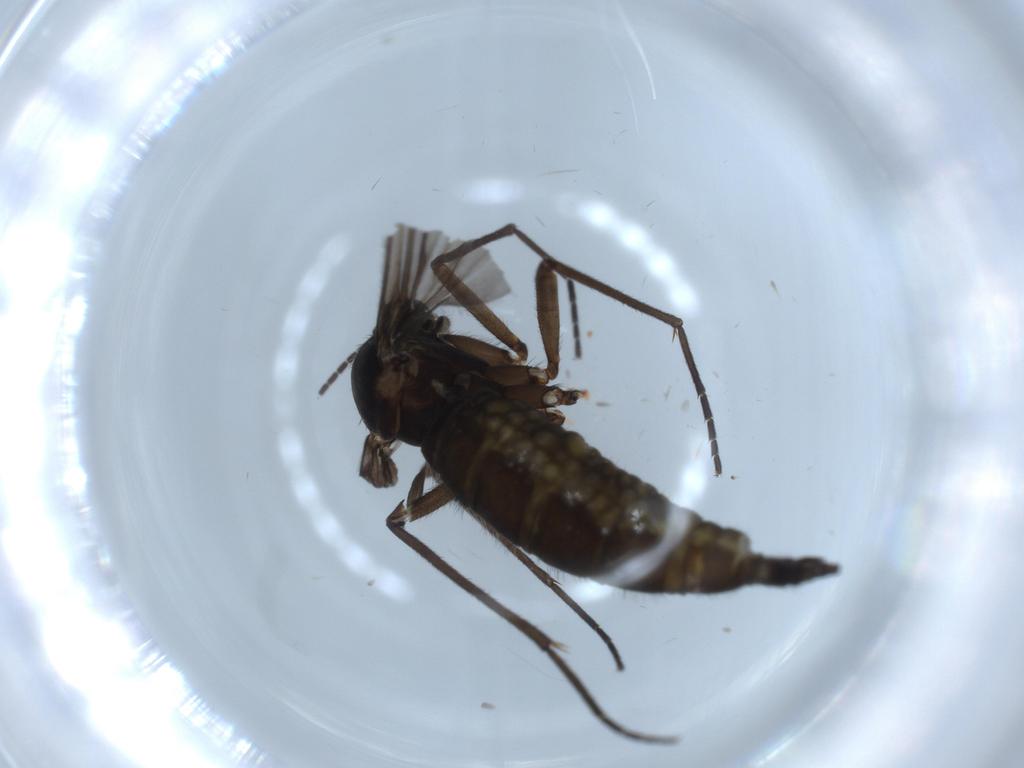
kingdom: Animalia
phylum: Arthropoda
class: Insecta
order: Diptera
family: Sciaridae
